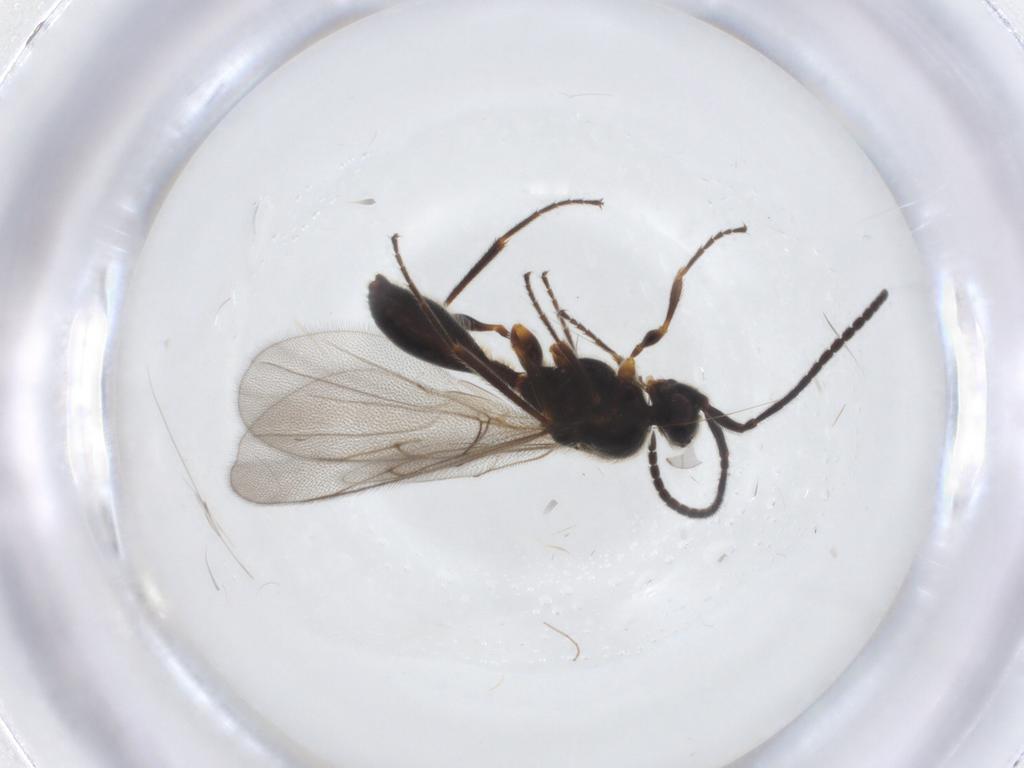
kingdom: Animalia
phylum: Arthropoda
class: Insecta
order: Hymenoptera
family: Diapriidae
